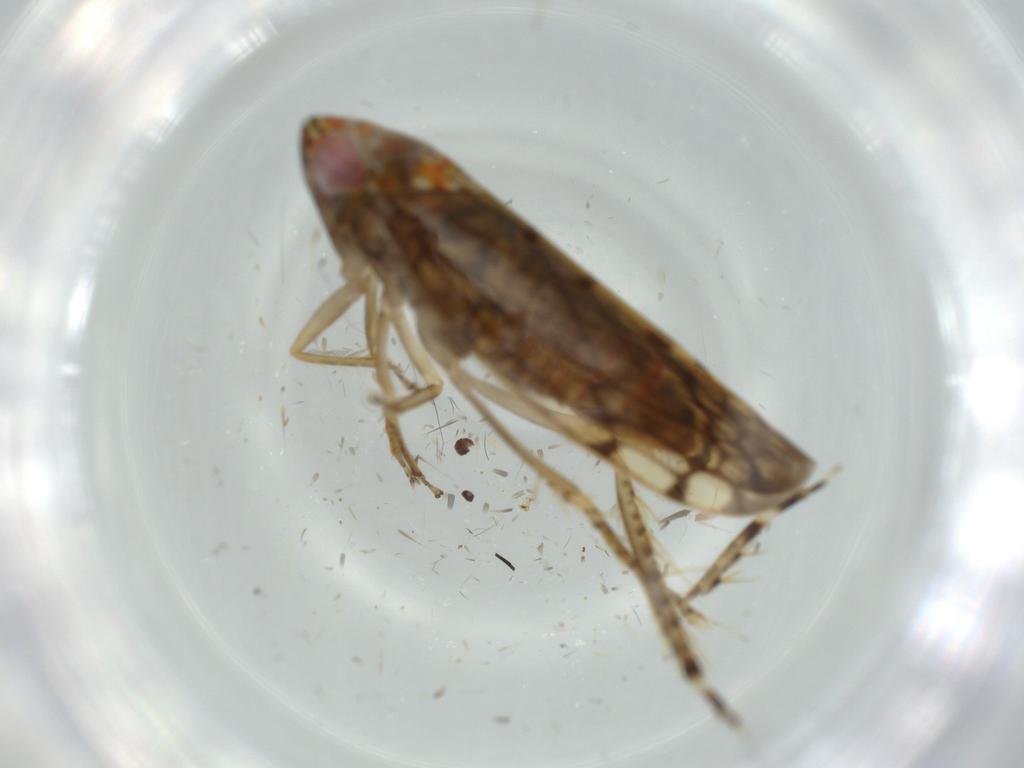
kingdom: Animalia
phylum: Arthropoda
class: Insecta
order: Hemiptera
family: Cicadellidae
